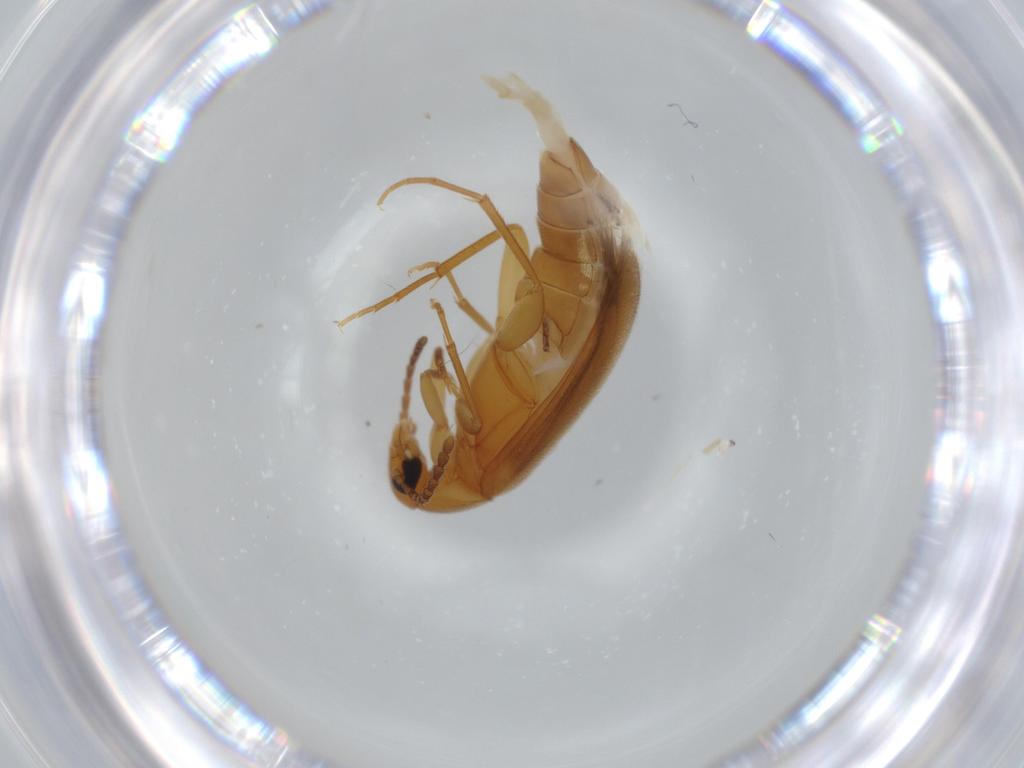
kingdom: Animalia
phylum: Arthropoda
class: Insecta
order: Coleoptera
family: Scraptiidae
